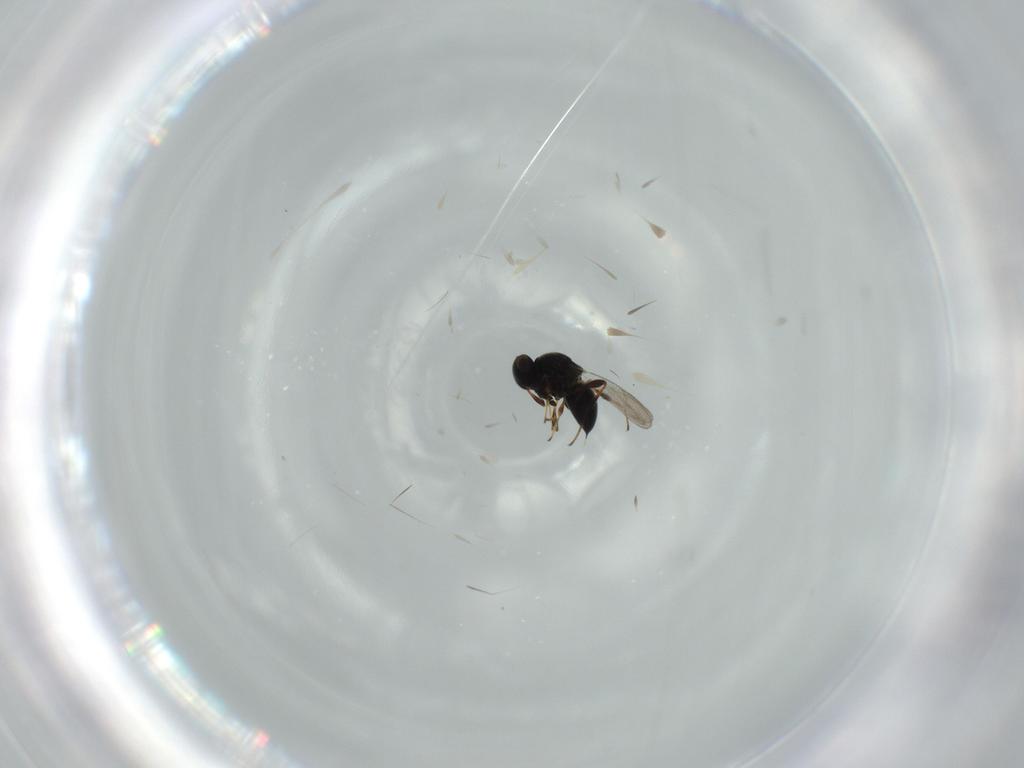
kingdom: Animalia
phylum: Arthropoda
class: Insecta
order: Hymenoptera
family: Platygastridae
